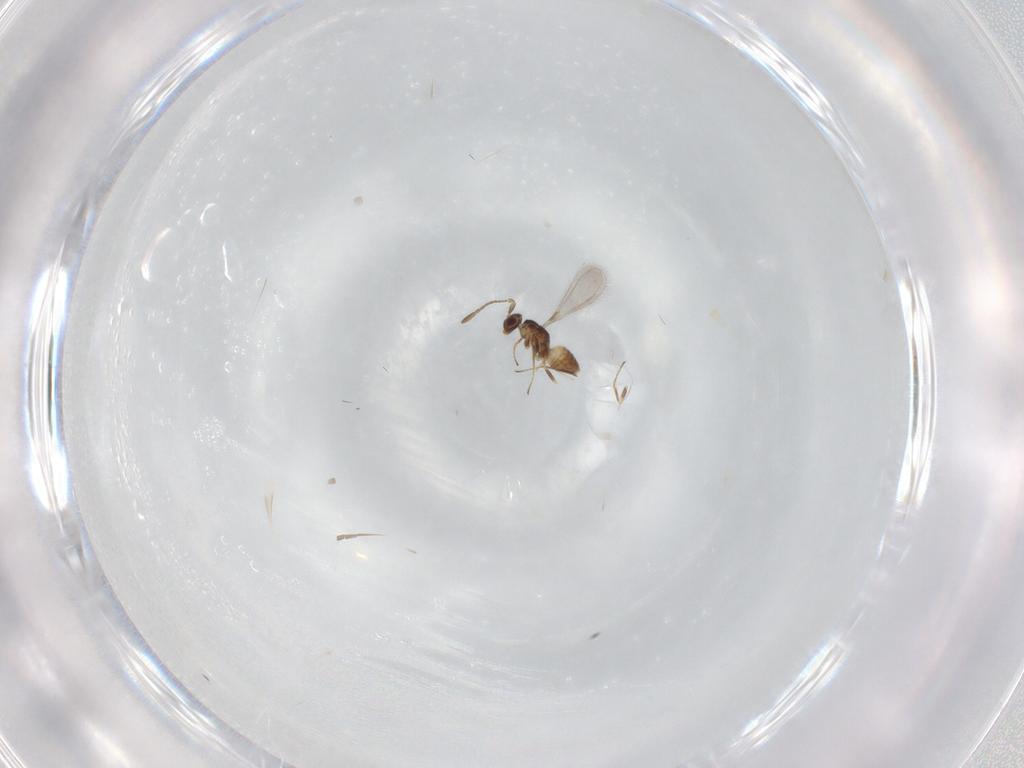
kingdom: Animalia
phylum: Arthropoda
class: Insecta
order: Hymenoptera
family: Mymaridae
